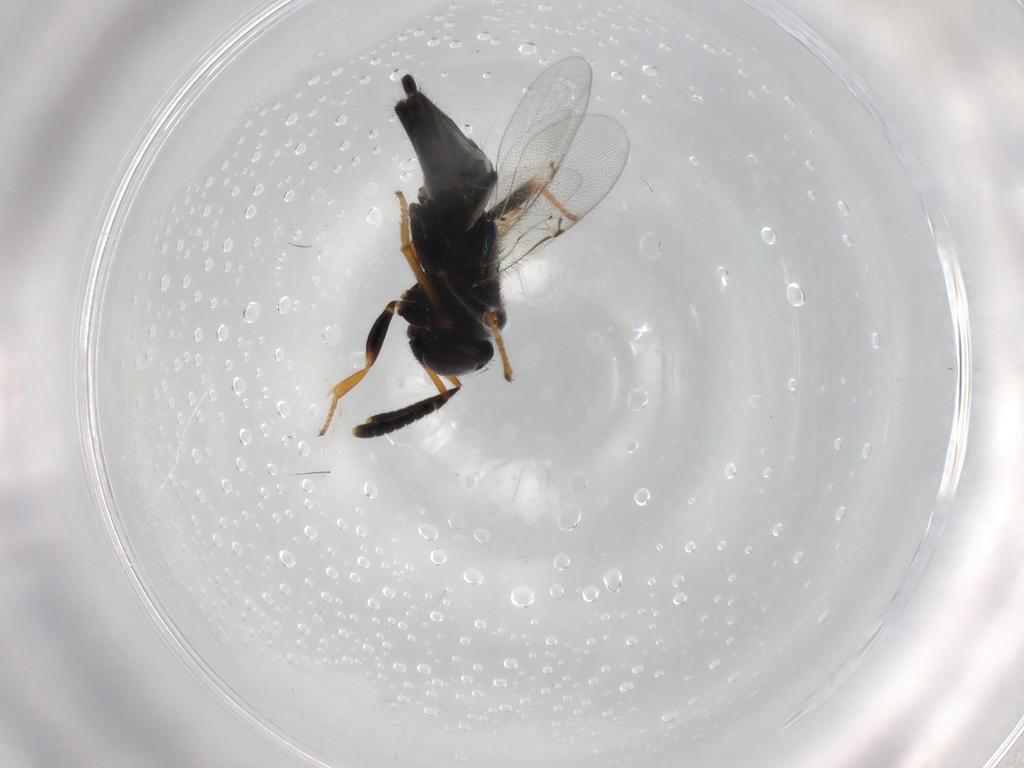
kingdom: Animalia
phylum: Arthropoda
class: Insecta
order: Hymenoptera
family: Encyrtidae
